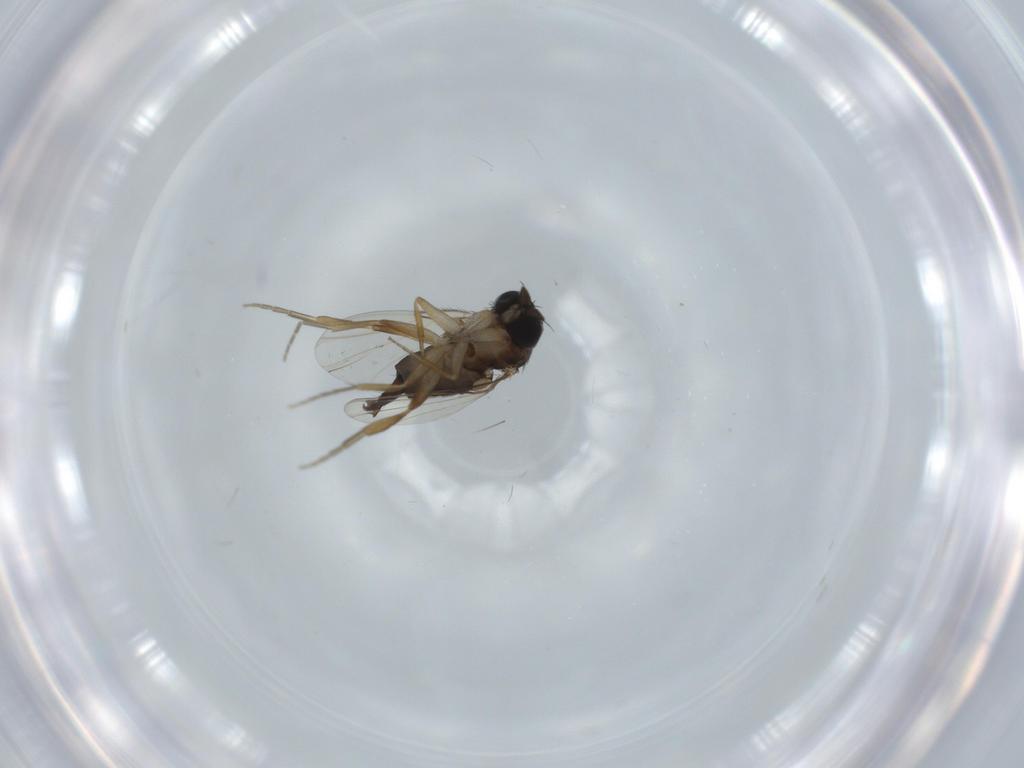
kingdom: Animalia
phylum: Arthropoda
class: Insecta
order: Diptera
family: Phoridae
